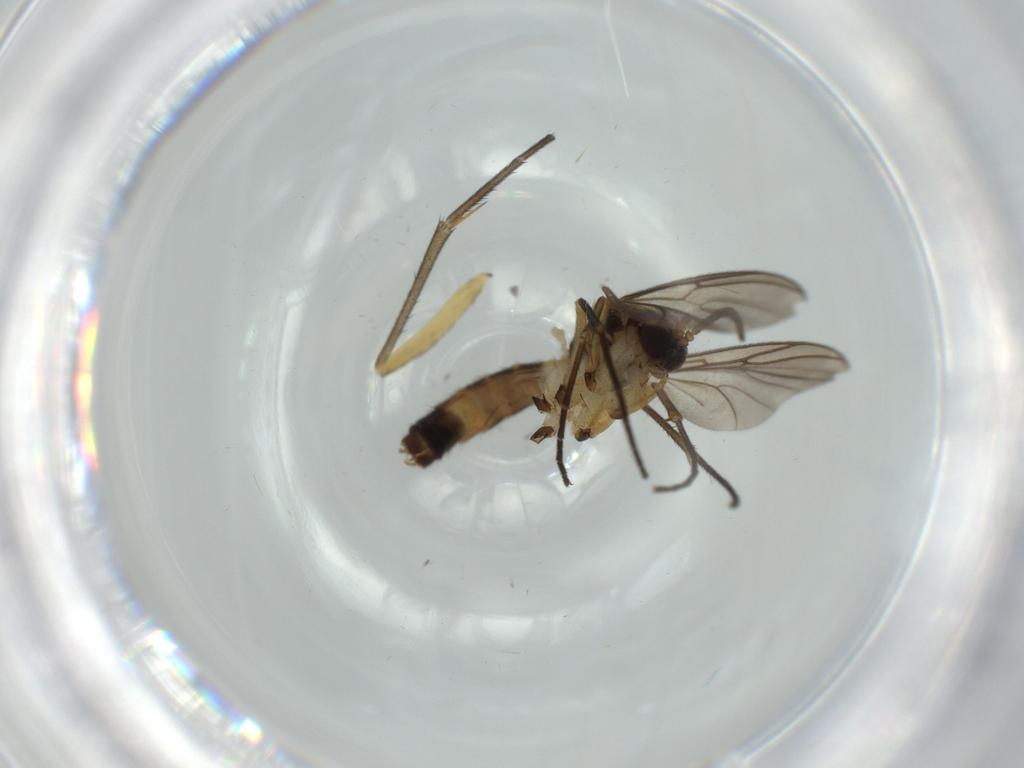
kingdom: Animalia
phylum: Arthropoda
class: Insecta
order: Diptera
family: Mycetophilidae
